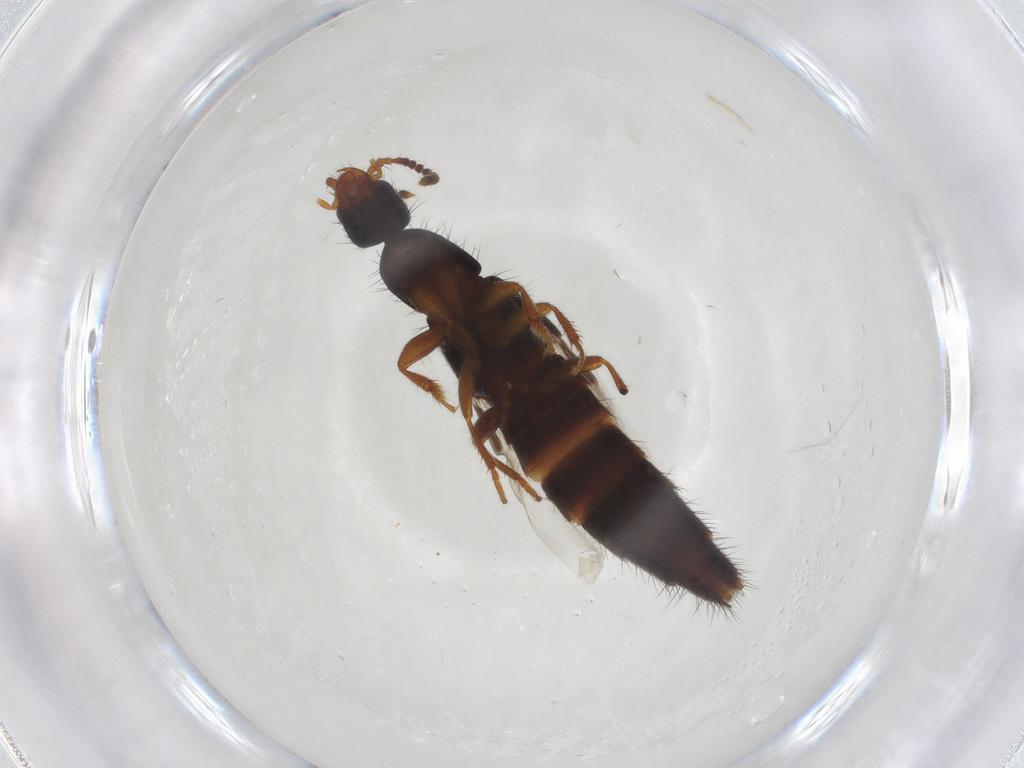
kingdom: Animalia
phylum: Arthropoda
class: Insecta
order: Coleoptera
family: Staphylinidae
